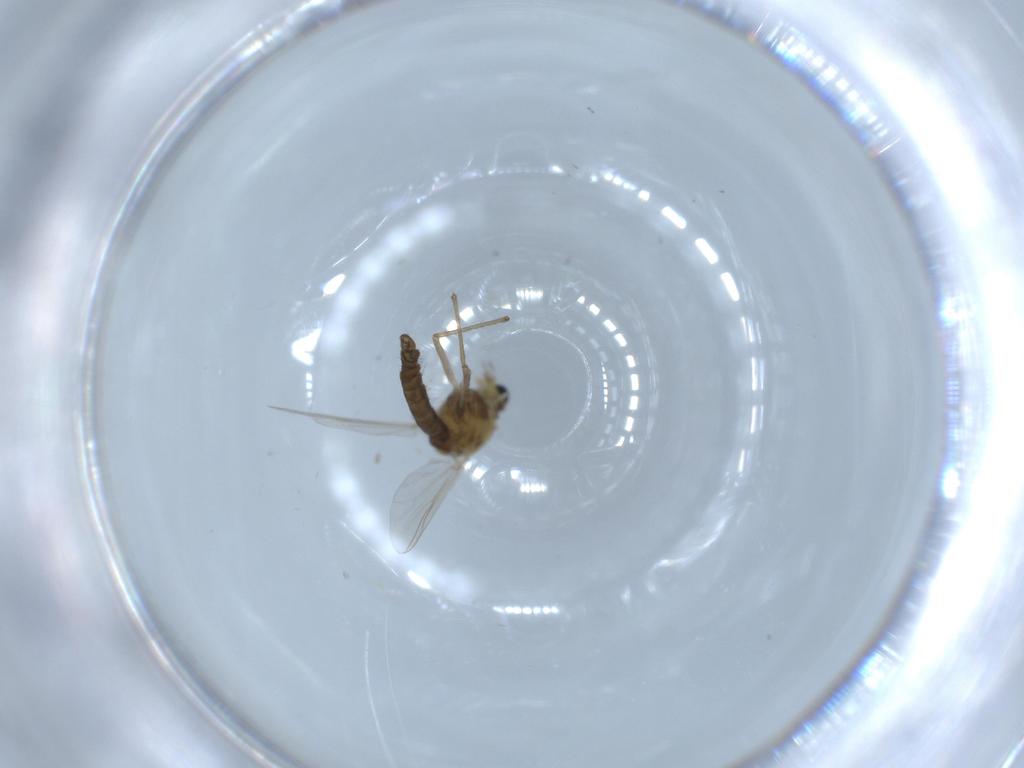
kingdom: Animalia
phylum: Arthropoda
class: Insecta
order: Diptera
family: Chironomidae
